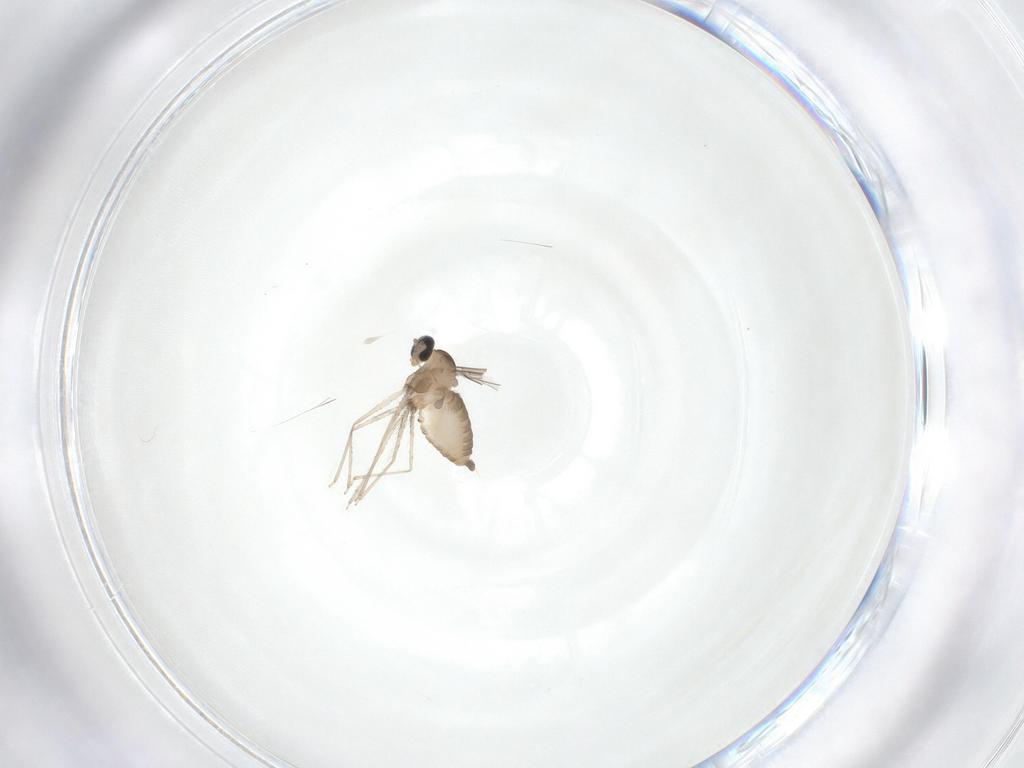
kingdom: Animalia
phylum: Arthropoda
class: Insecta
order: Diptera
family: Cecidomyiidae
